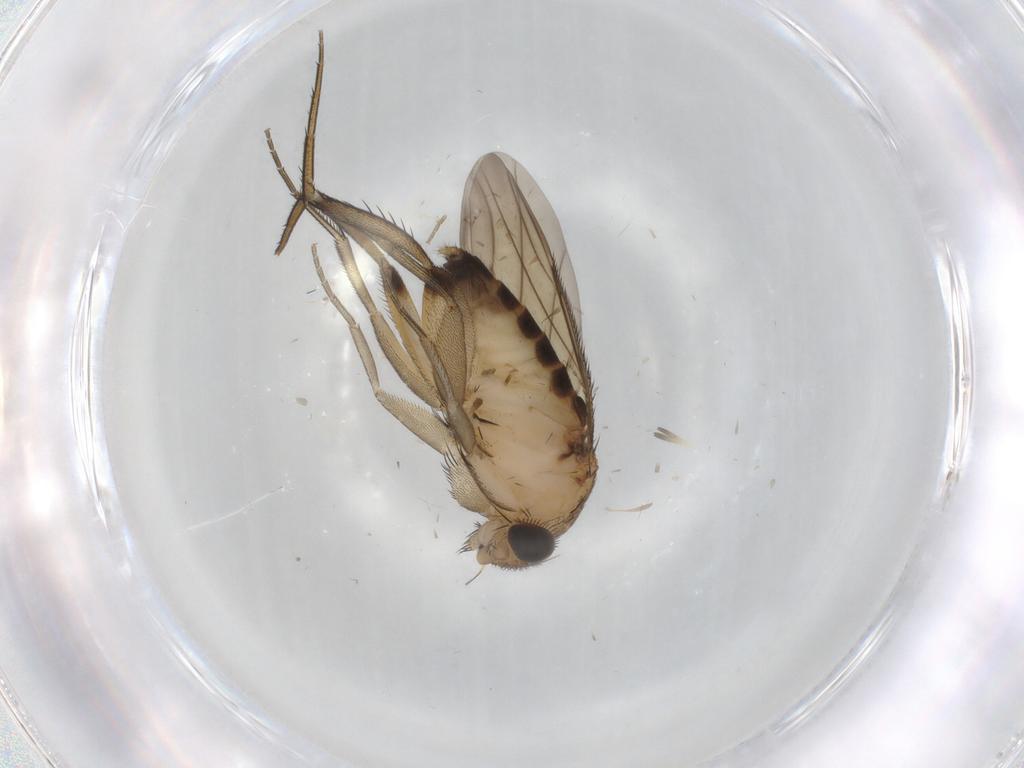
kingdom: Animalia
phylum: Arthropoda
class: Insecta
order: Diptera
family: Phoridae
